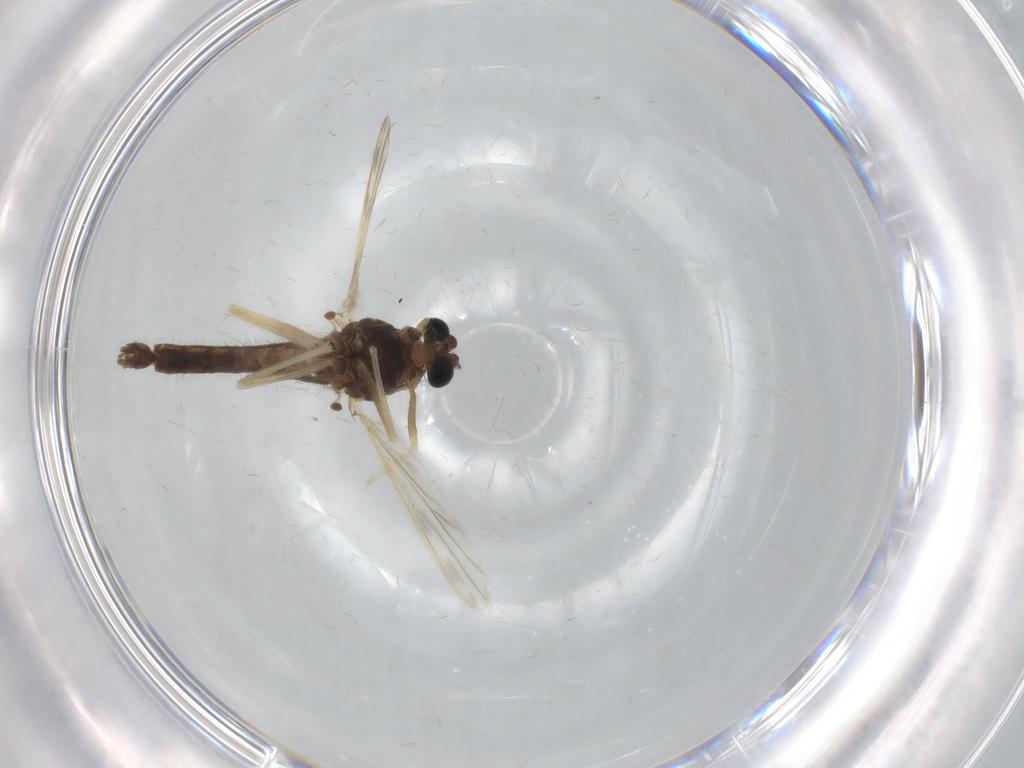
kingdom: Animalia
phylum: Arthropoda
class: Insecta
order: Diptera
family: Chironomidae
